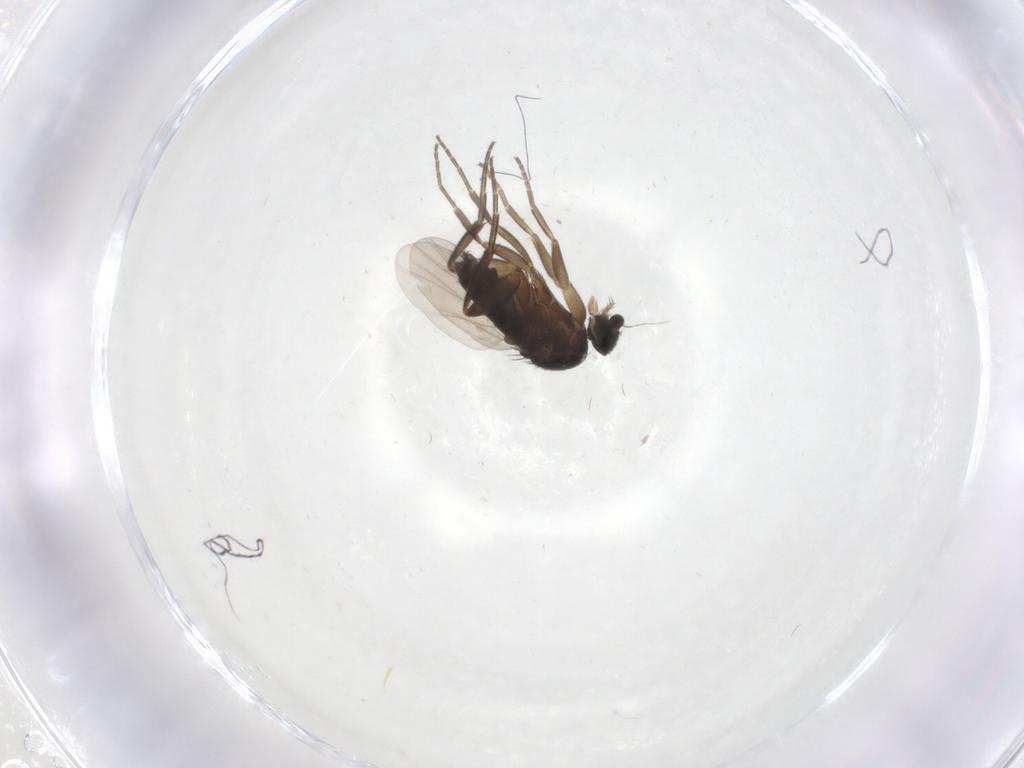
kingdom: Animalia
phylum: Arthropoda
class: Insecta
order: Diptera
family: Phoridae
